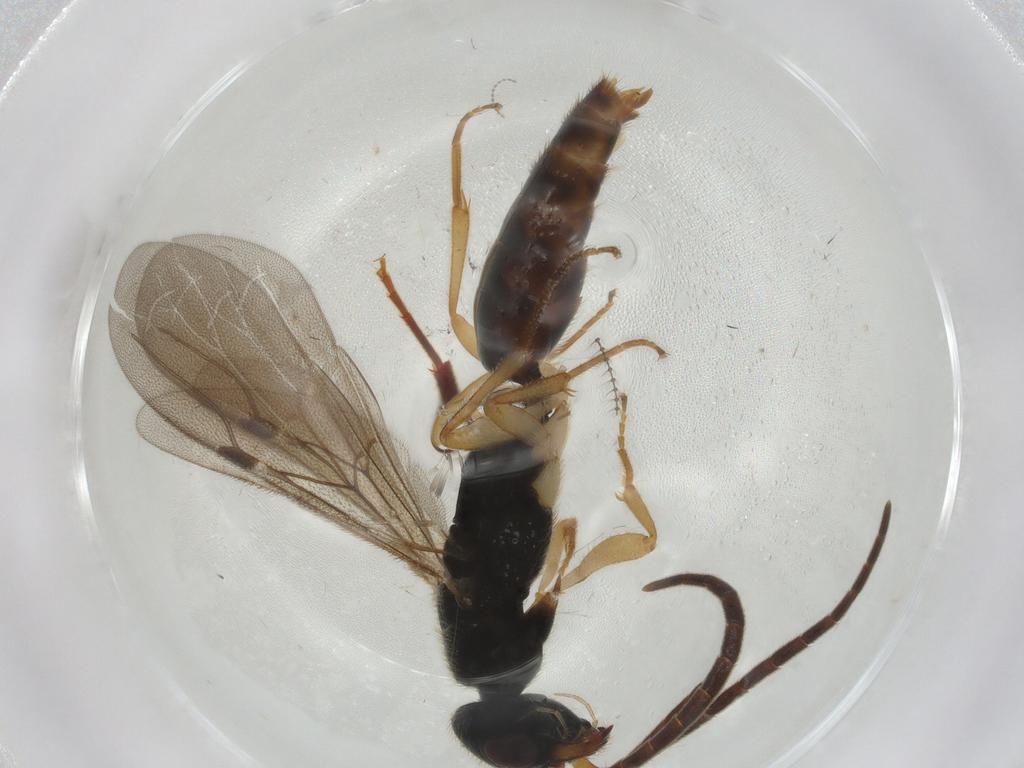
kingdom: Animalia
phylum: Arthropoda
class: Insecta
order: Hymenoptera
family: Bethylidae
